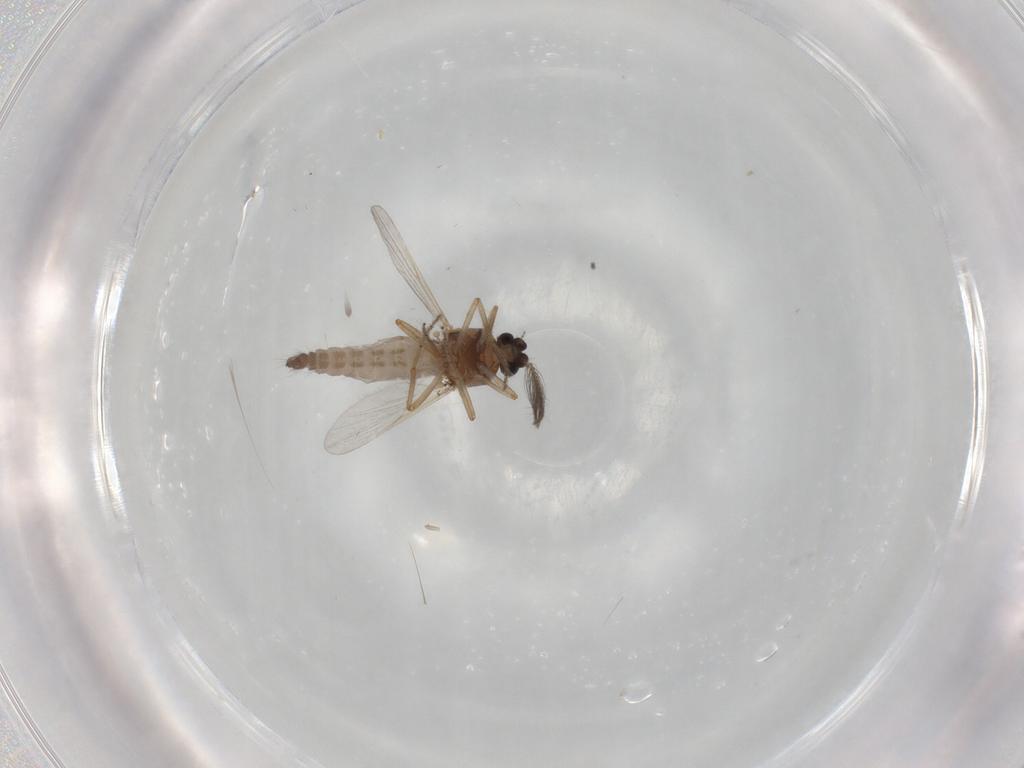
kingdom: Animalia
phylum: Arthropoda
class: Insecta
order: Diptera
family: Ceratopogonidae
